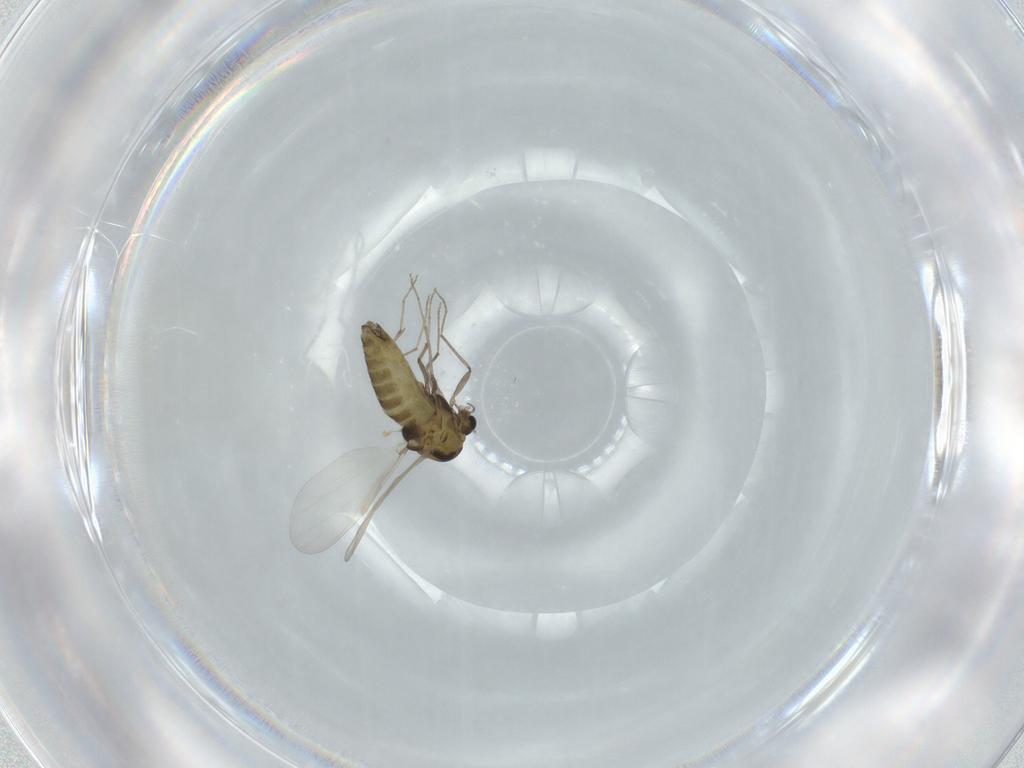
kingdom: Animalia
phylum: Arthropoda
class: Insecta
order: Diptera
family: Chironomidae
